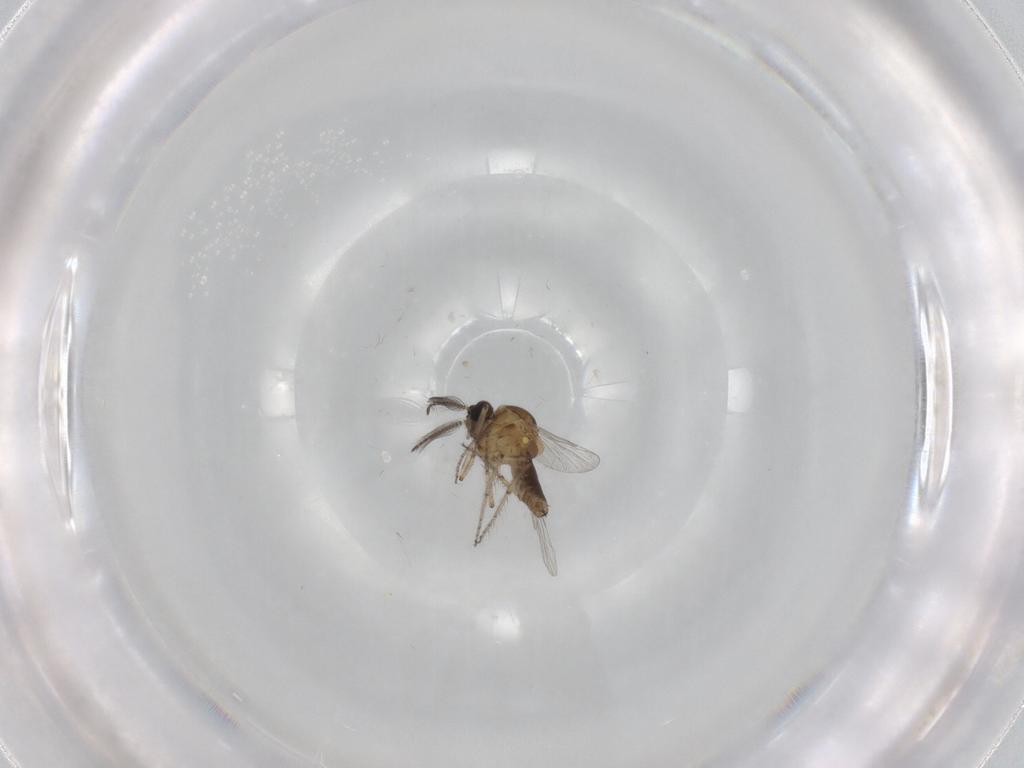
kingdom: Animalia
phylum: Arthropoda
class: Insecta
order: Diptera
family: Ceratopogonidae
